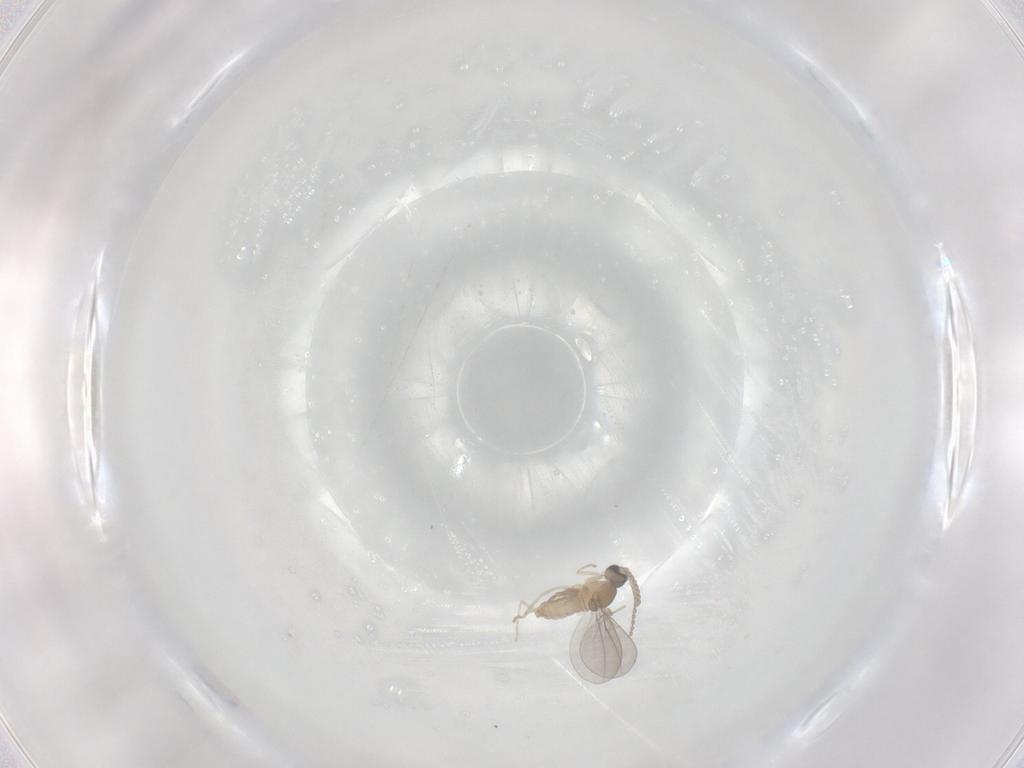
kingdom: Animalia
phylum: Arthropoda
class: Insecta
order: Diptera
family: Cecidomyiidae
